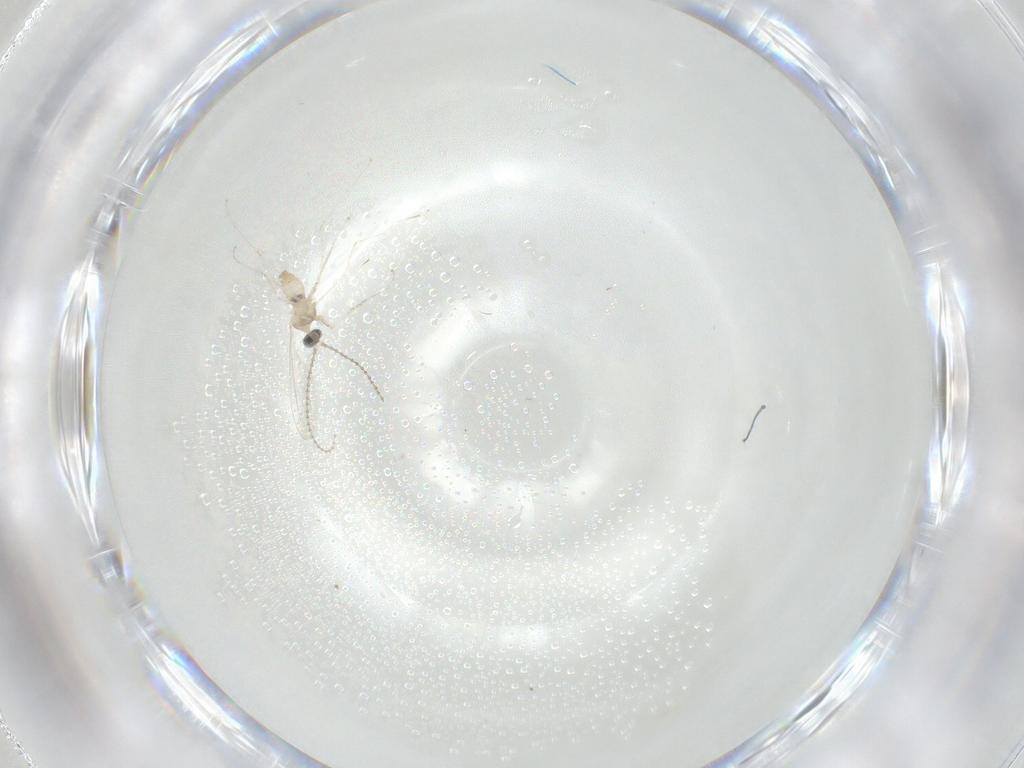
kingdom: Animalia
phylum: Arthropoda
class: Insecta
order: Diptera
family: Cecidomyiidae
